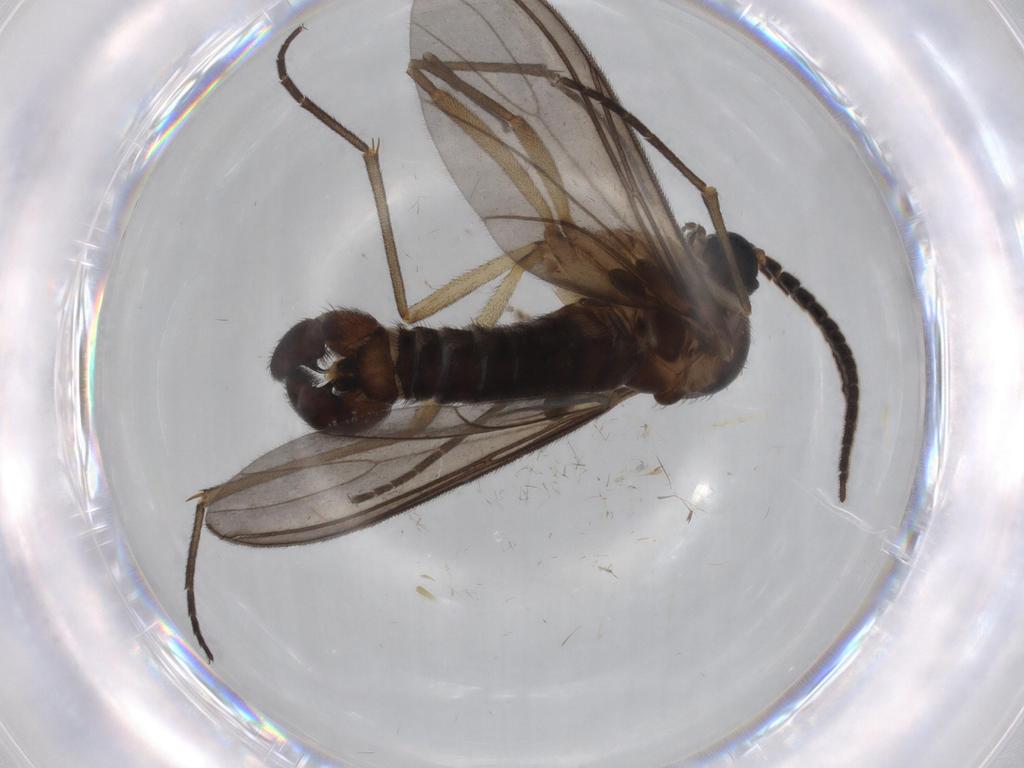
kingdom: Animalia
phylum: Arthropoda
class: Insecta
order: Diptera
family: Cecidomyiidae
